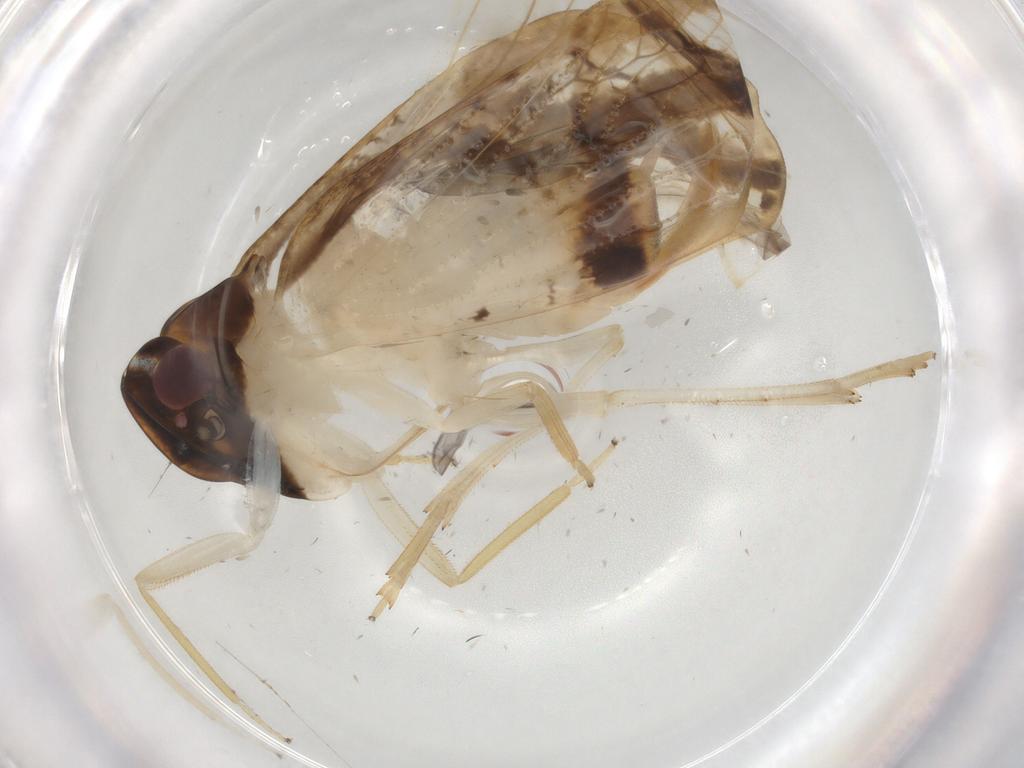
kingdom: Animalia
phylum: Arthropoda
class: Insecta
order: Hemiptera
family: Cixiidae
